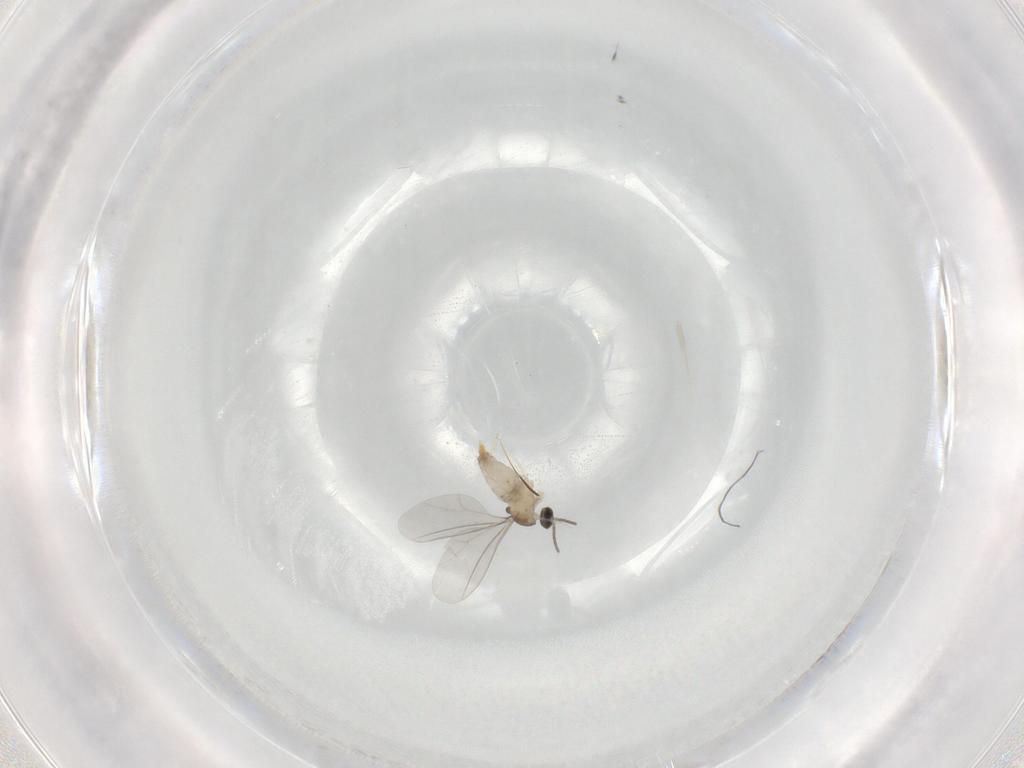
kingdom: Animalia
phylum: Arthropoda
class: Insecta
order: Diptera
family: Cecidomyiidae
